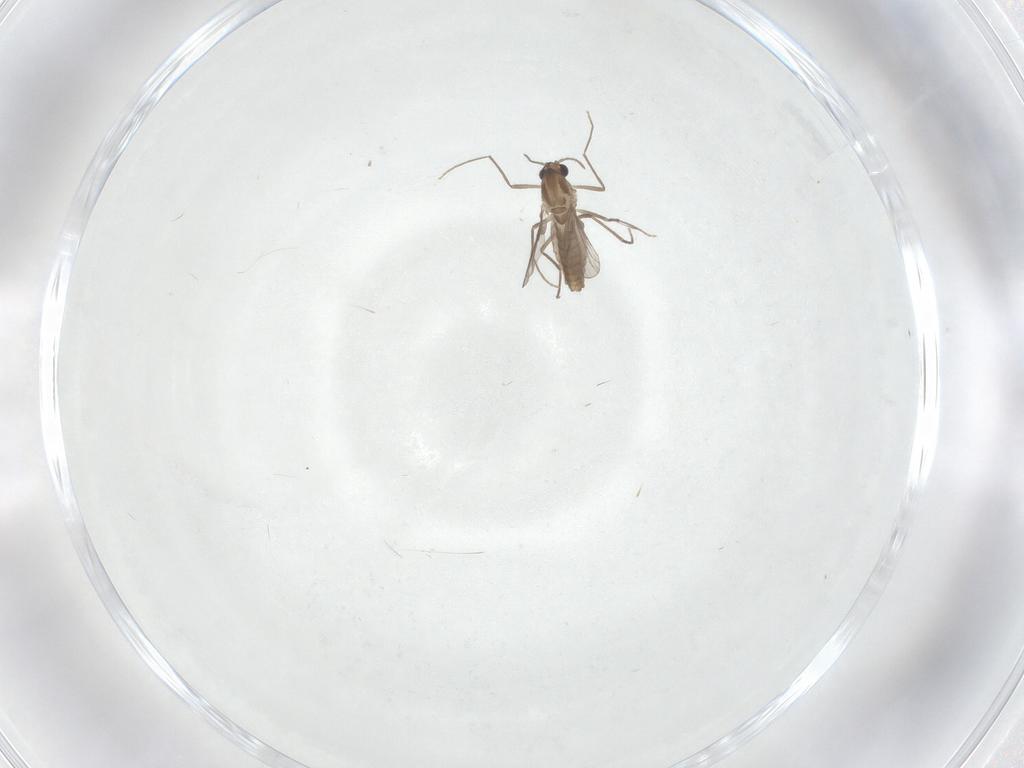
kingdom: Animalia
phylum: Arthropoda
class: Insecta
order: Diptera
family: Chironomidae
